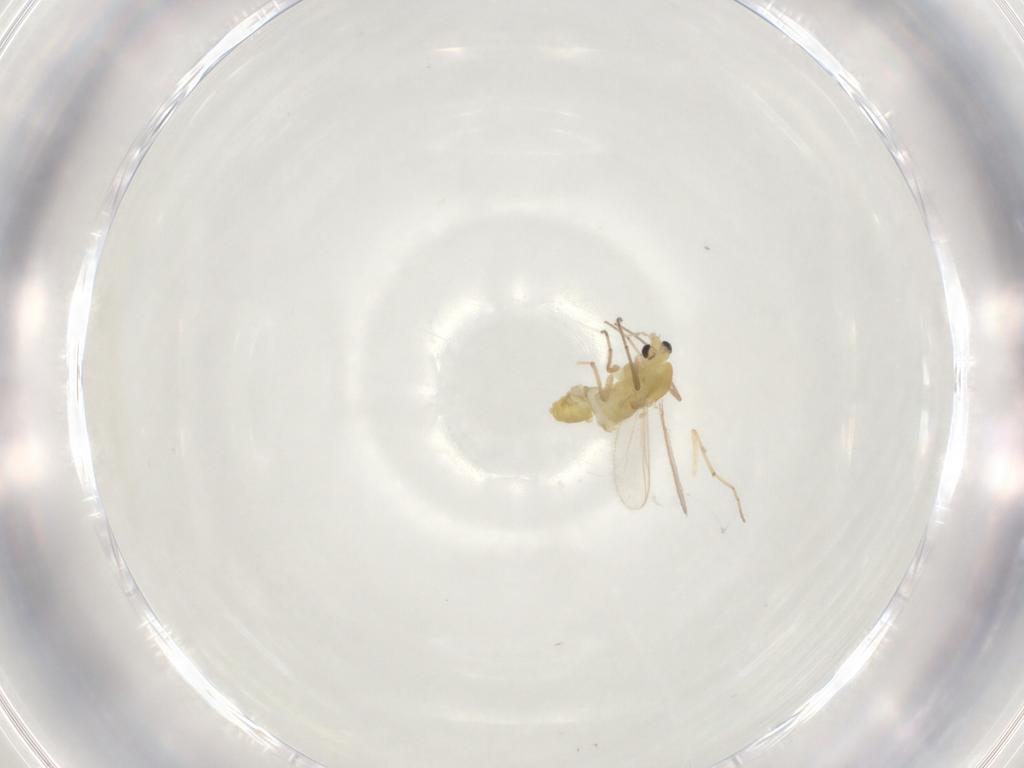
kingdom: Animalia
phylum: Arthropoda
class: Insecta
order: Diptera
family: Chironomidae
